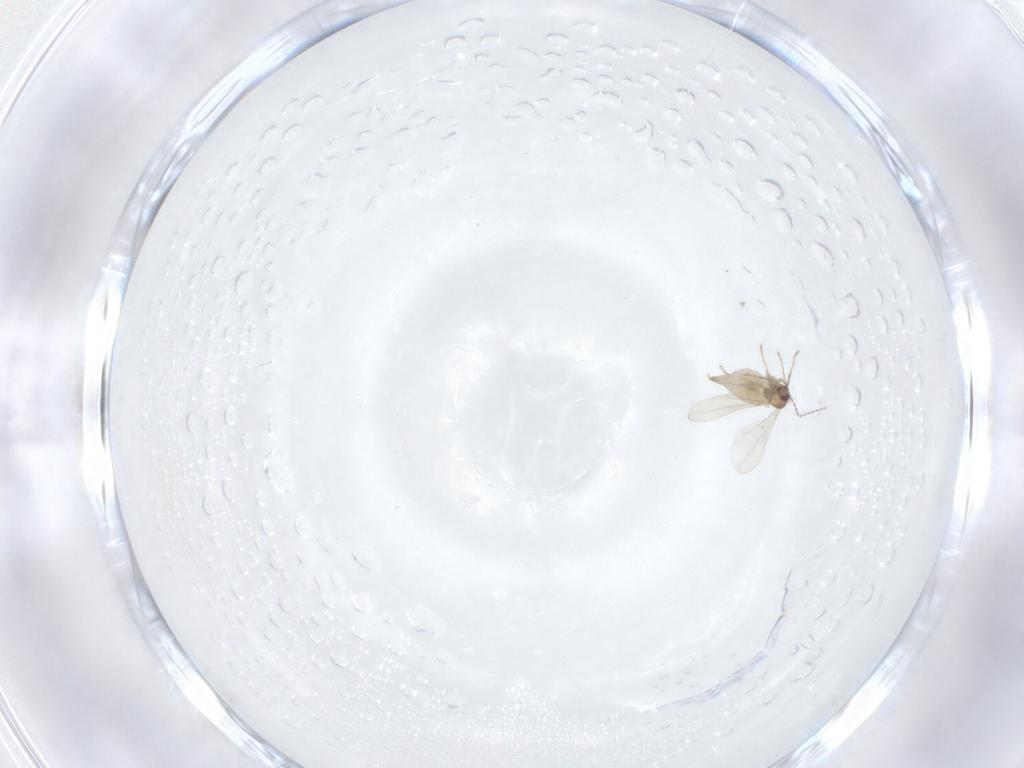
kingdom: Animalia
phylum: Arthropoda
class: Insecta
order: Diptera
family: Cecidomyiidae
